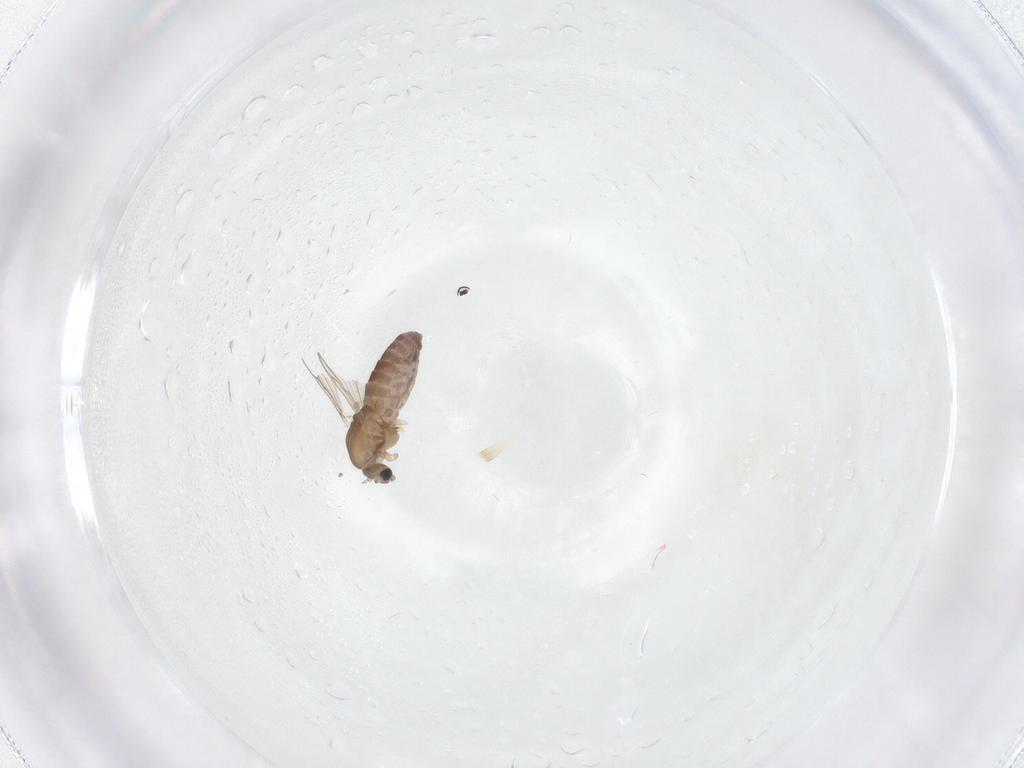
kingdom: Animalia
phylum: Arthropoda
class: Insecta
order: Diptera
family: Chironomidae
